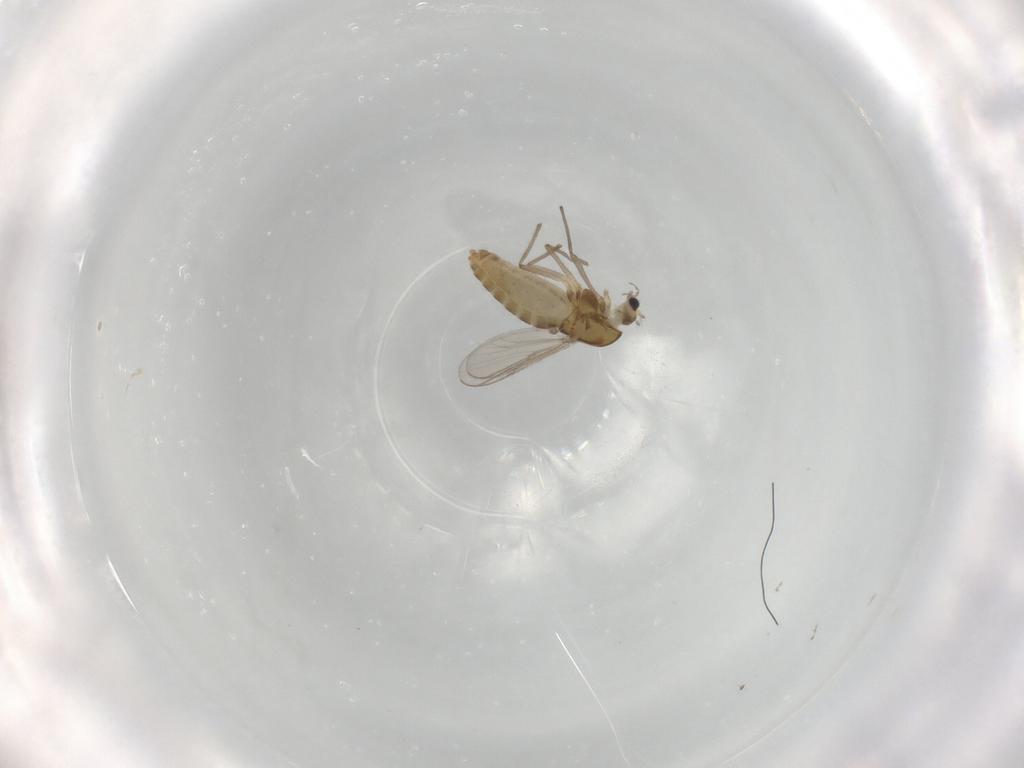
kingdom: Animalia
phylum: Arthropoda
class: Insecta
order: Diptera
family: Chironomidae
